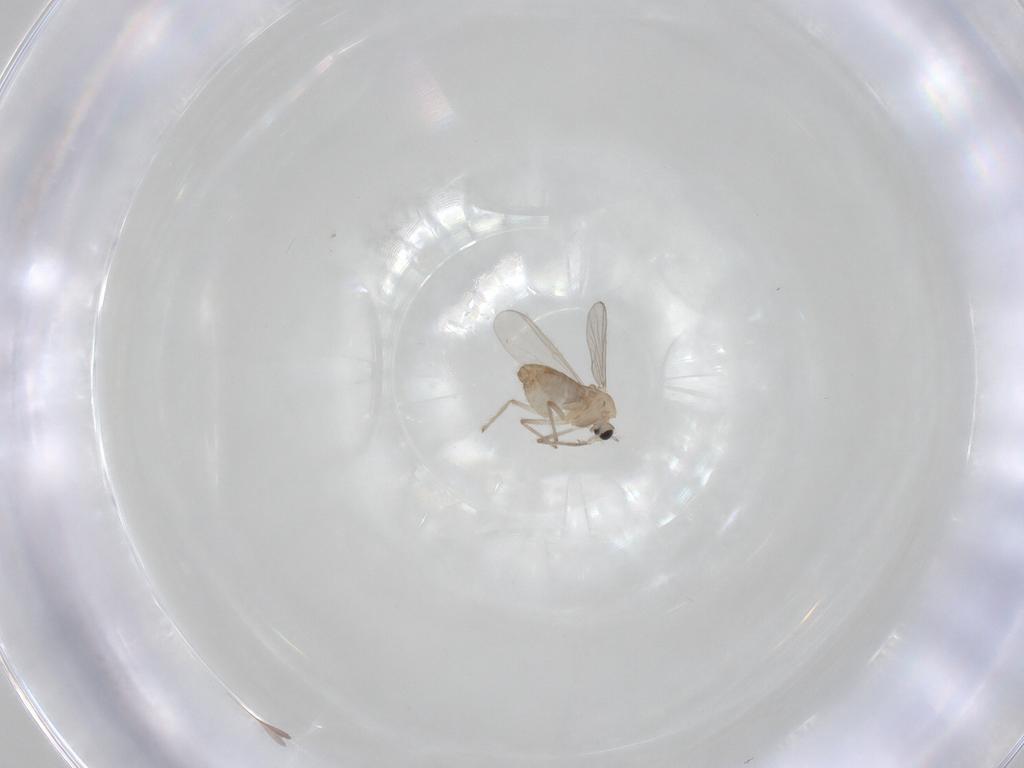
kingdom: Animalia
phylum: Arthropoda
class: Insecta
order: Diptera
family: Chironomidae
